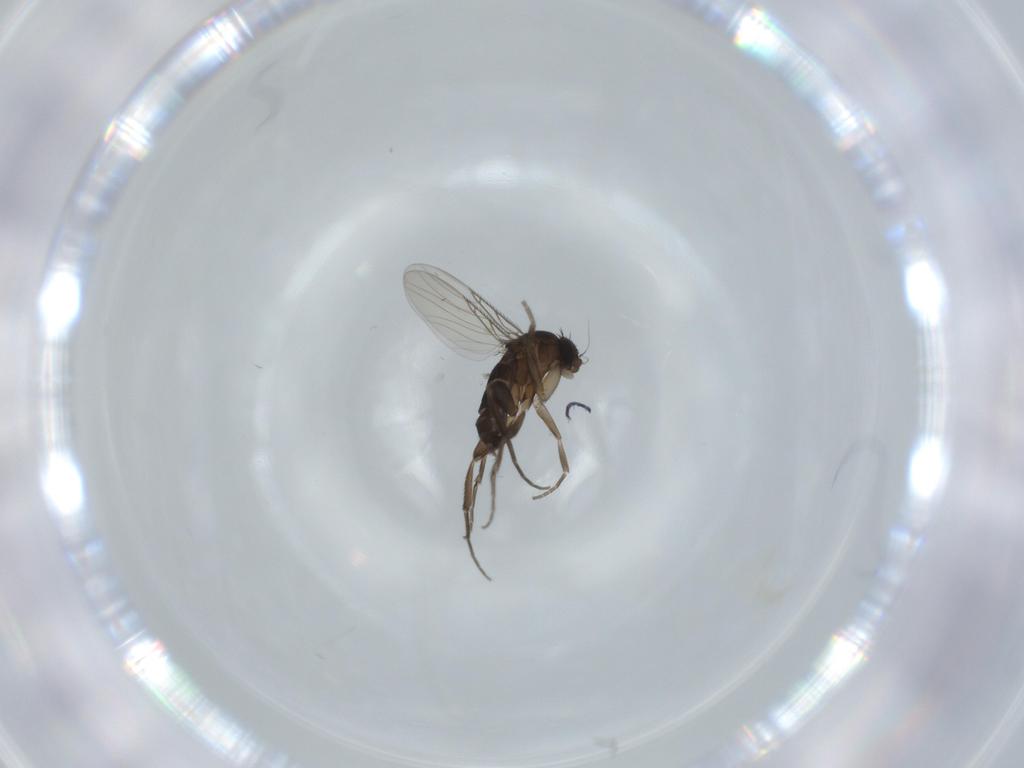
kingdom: Animalia
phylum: Arthropoda
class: Insecta
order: Diptera
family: Phoridae
